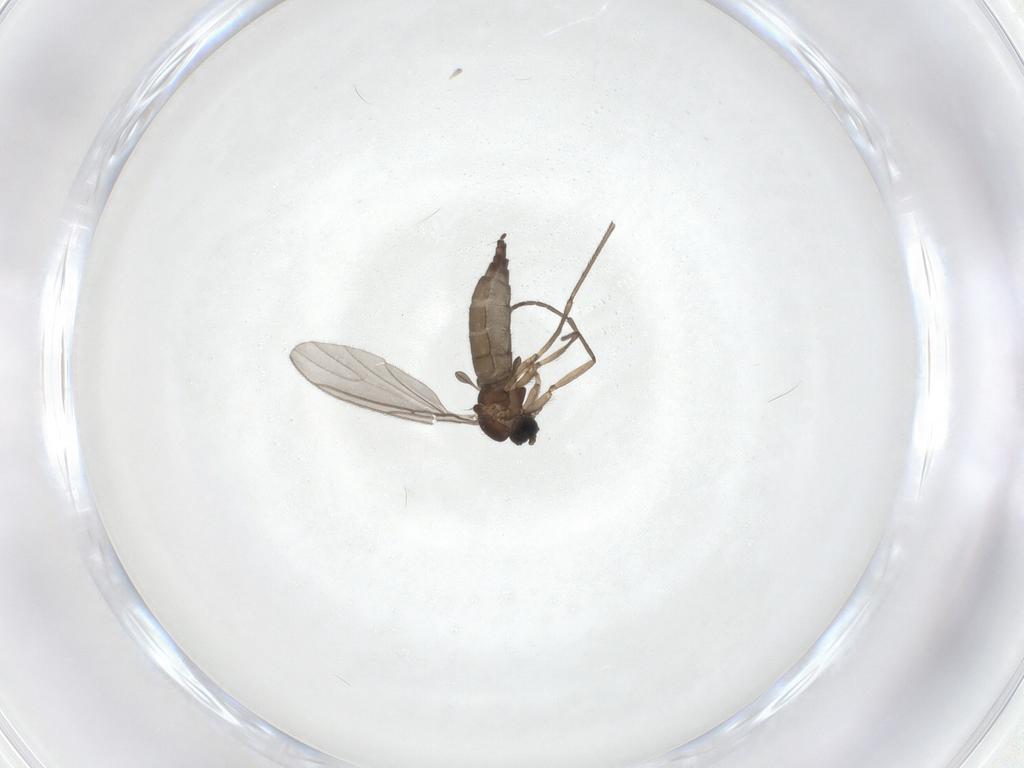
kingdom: Animalia
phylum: Arthropoda
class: Insecta
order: Diptera
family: Sciaridae
